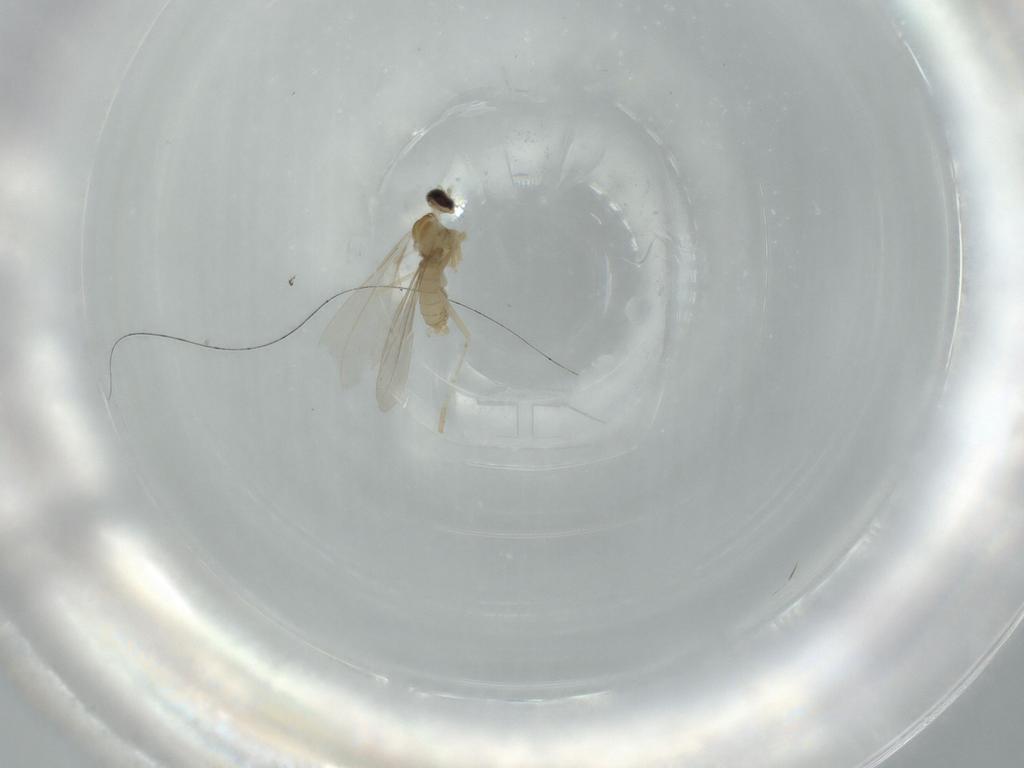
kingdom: Animalia
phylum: Arthropoda
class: Insecta
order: Diptera
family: Cecidomyiidae
